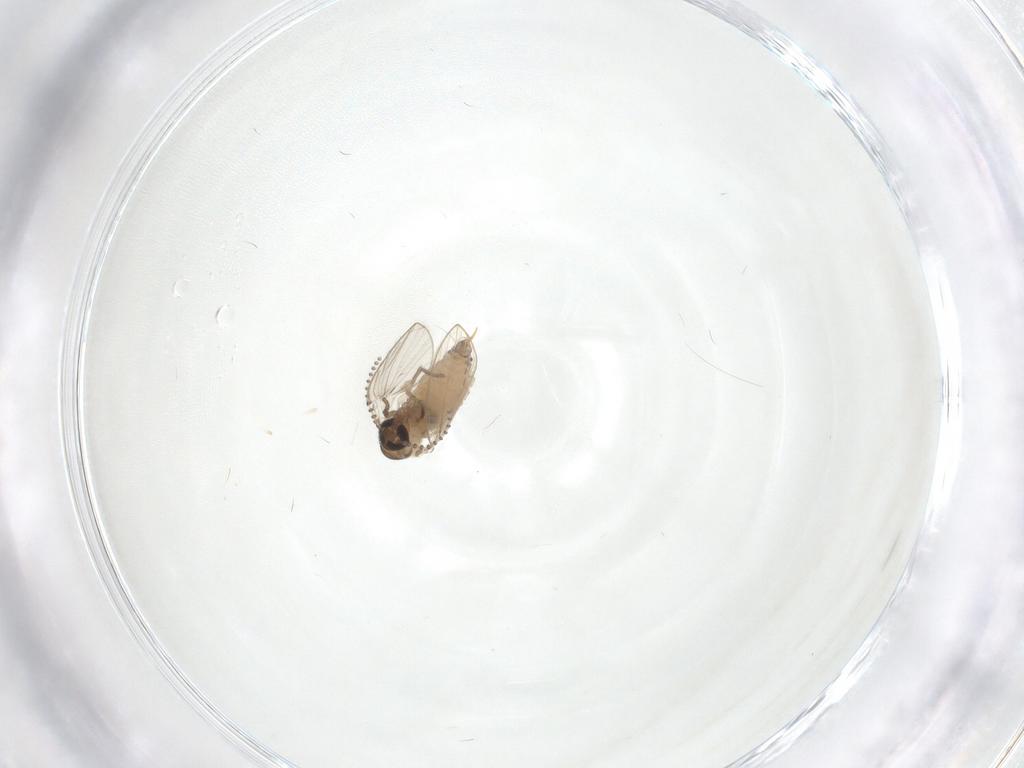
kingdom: Animalia
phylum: Arthropoda
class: Insecta
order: Diptera
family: Psychodidae
